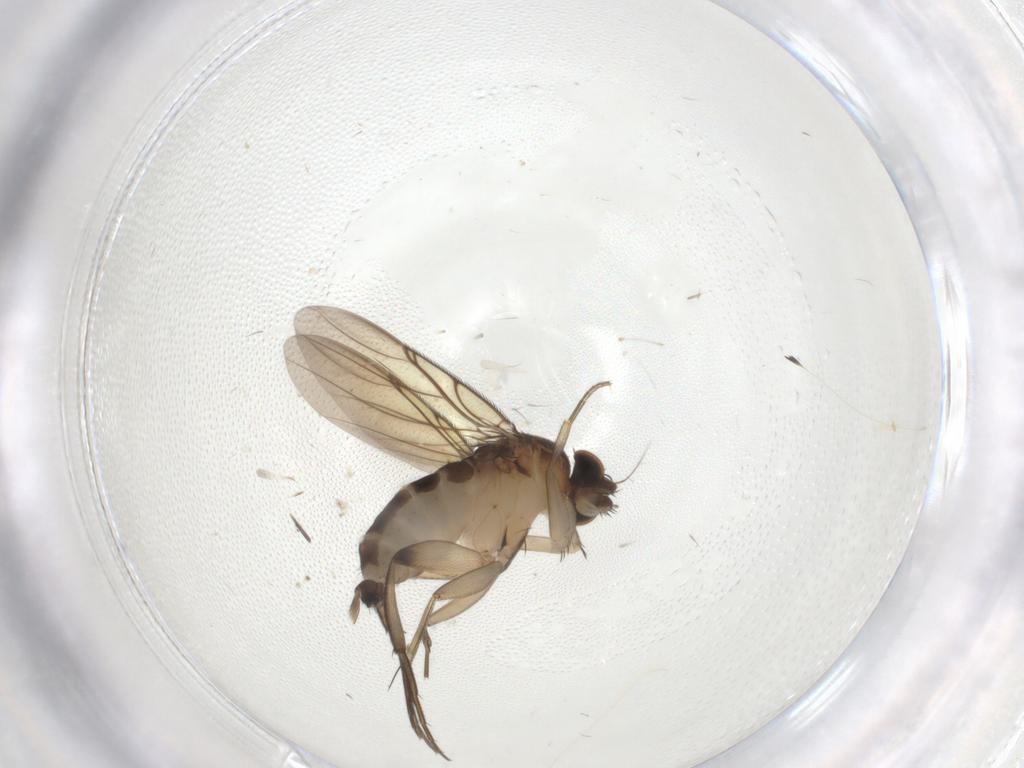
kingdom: Animalia
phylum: Arthropoda
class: Insecta
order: Diptera
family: Phoridae
